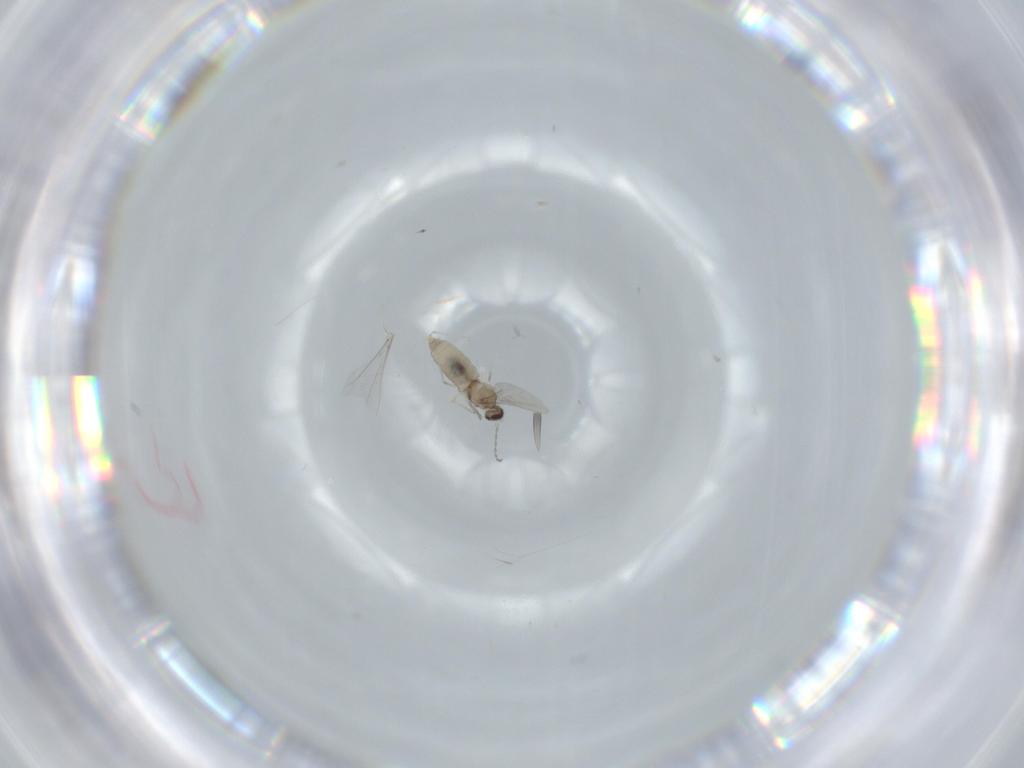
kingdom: Animalia
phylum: Arthropoda
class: Insecta
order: Diptera
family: Cecidomyiidae
